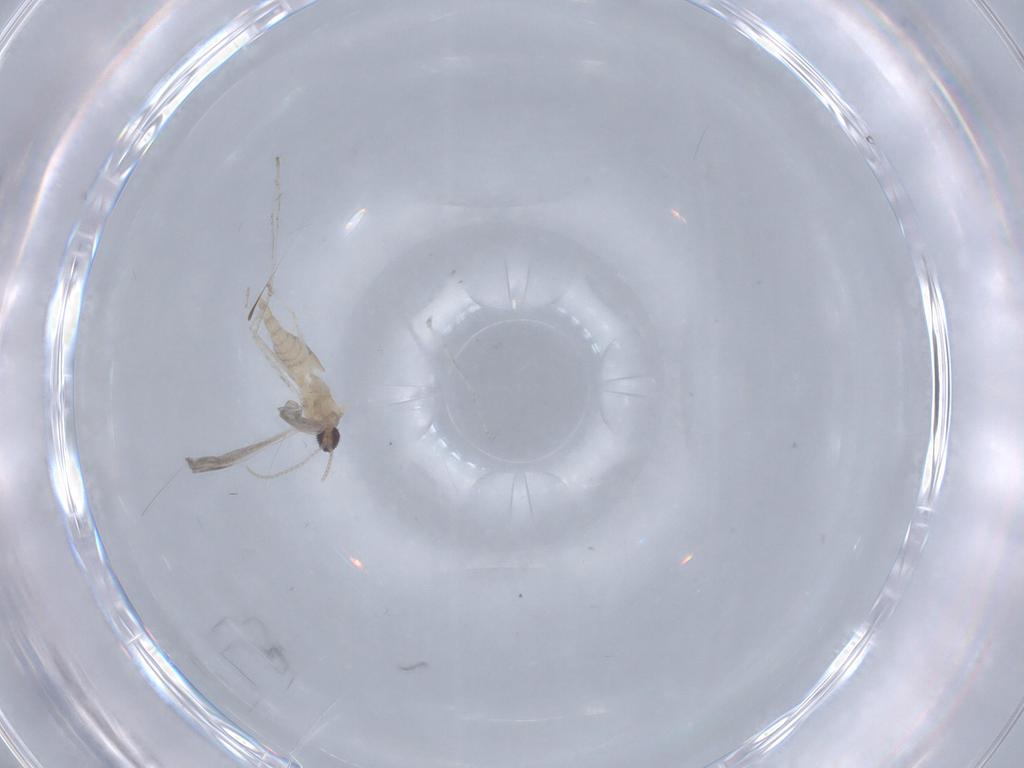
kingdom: Animalia
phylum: Arthropoda
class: Insecta
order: Diptera
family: Cecidomyiidae
